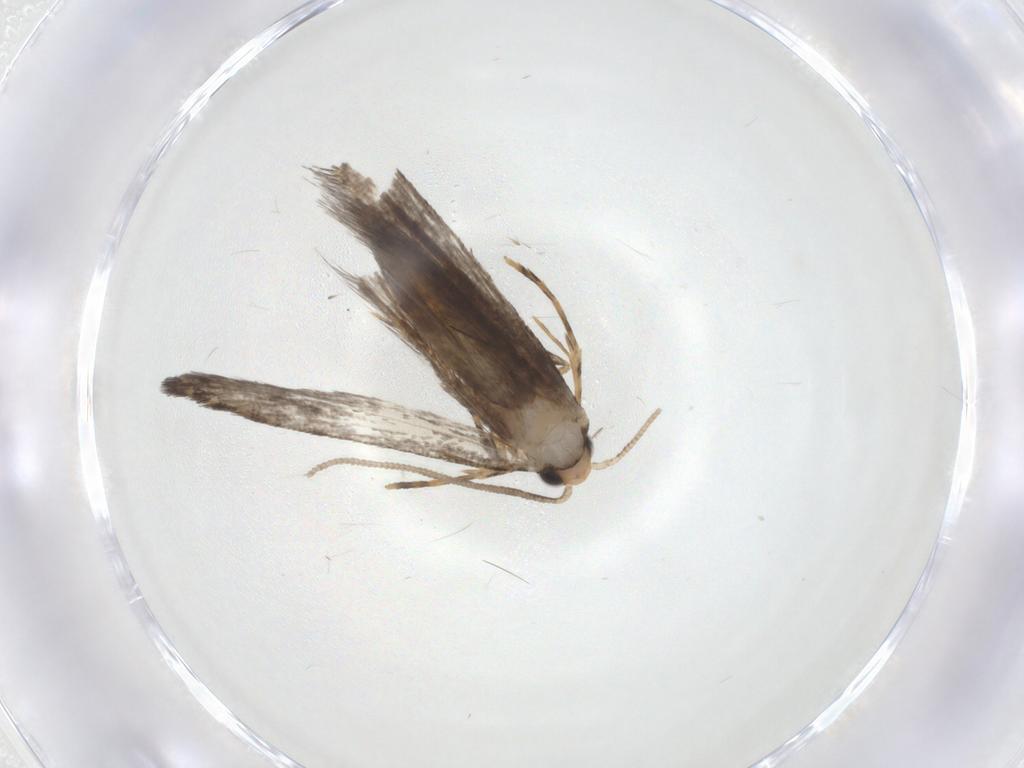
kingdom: Animalia
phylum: Arthropoda
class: Insecta
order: Lepidoptera
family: Tineidae
